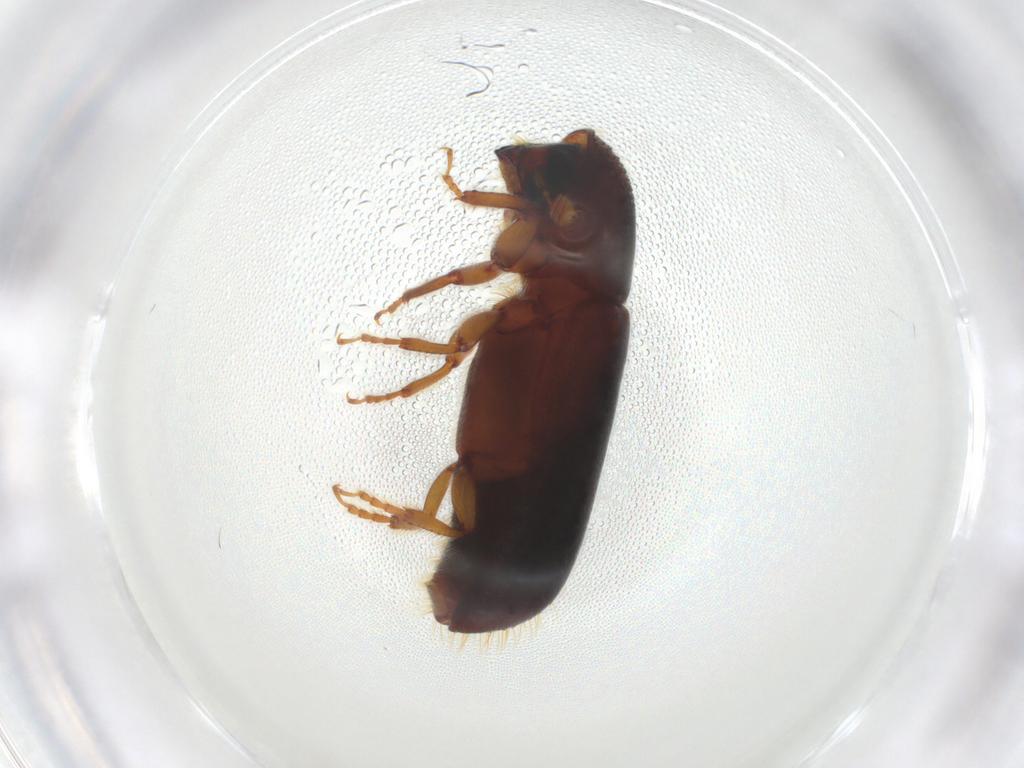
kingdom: Animalia
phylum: Arthropoda
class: Insecta
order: Coleoptera
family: Curculionidae
